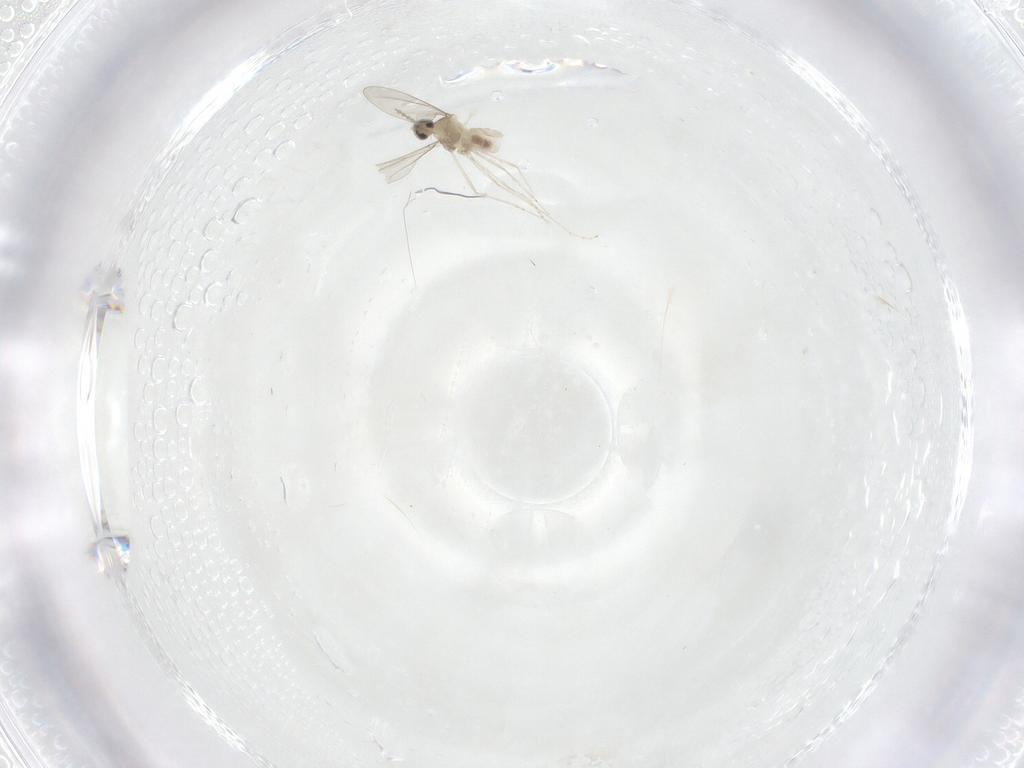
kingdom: Animalia
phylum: Arthropoda
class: Insecta
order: Diptera
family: Cecidomyiidae
